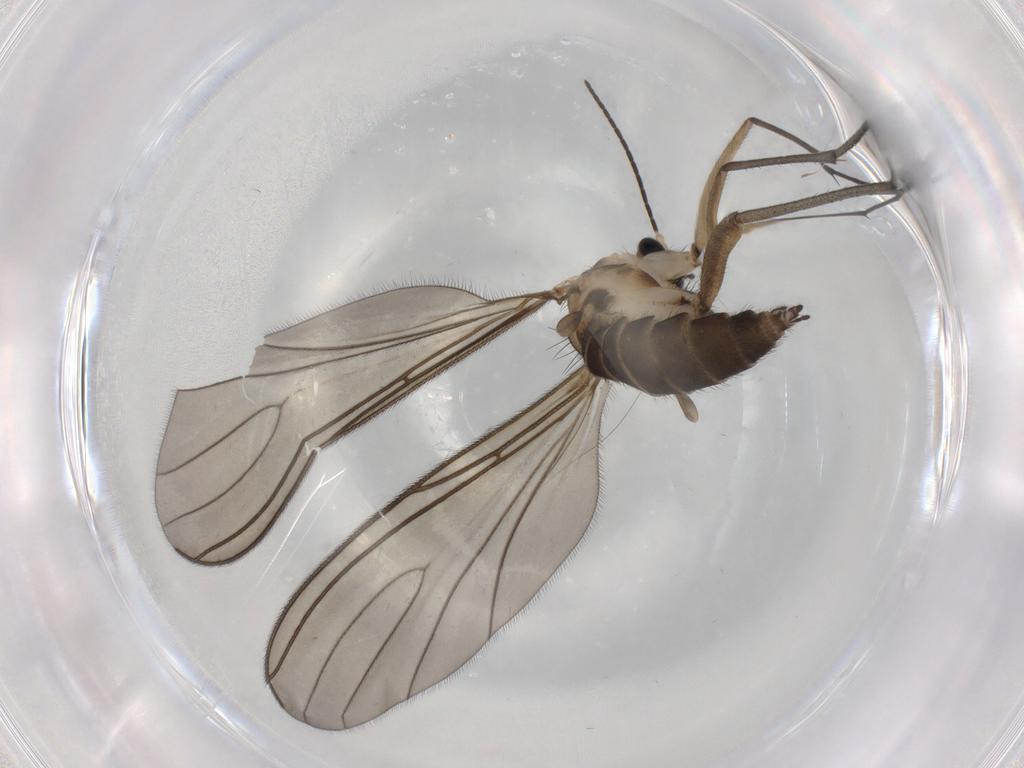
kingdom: Animalia
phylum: Arthropoda
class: Insecta
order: Diptera
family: Sciaridae
